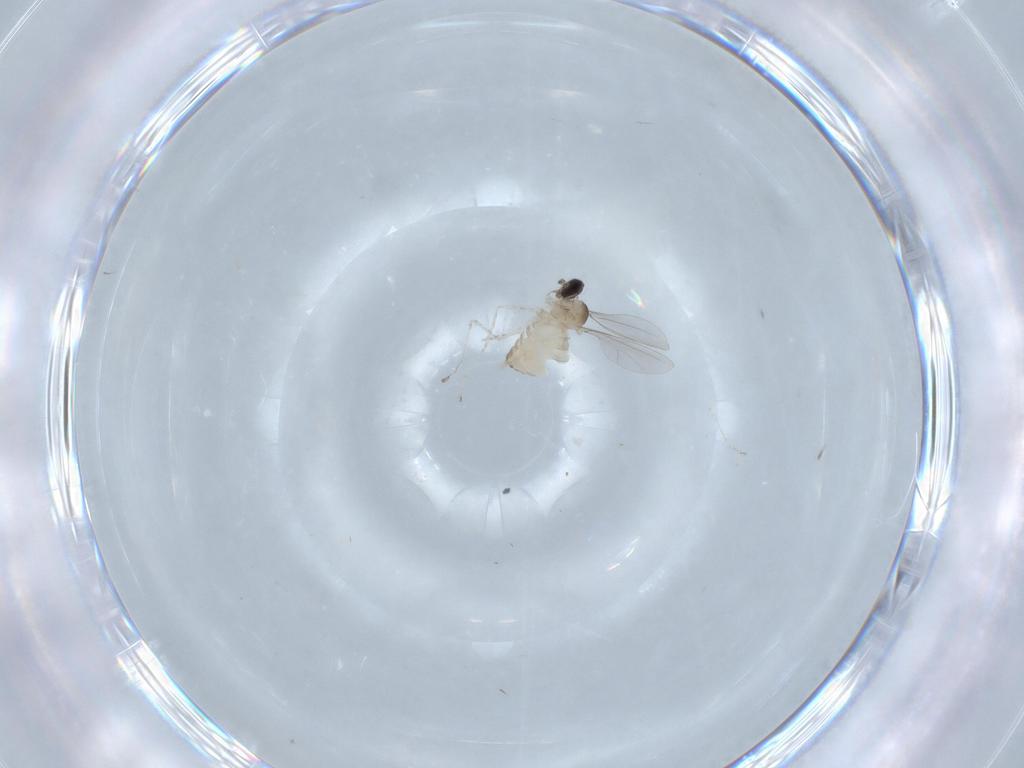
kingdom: Animalia
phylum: Arthropoda
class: Insecta
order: Diptera
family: Cecidomyiidae
